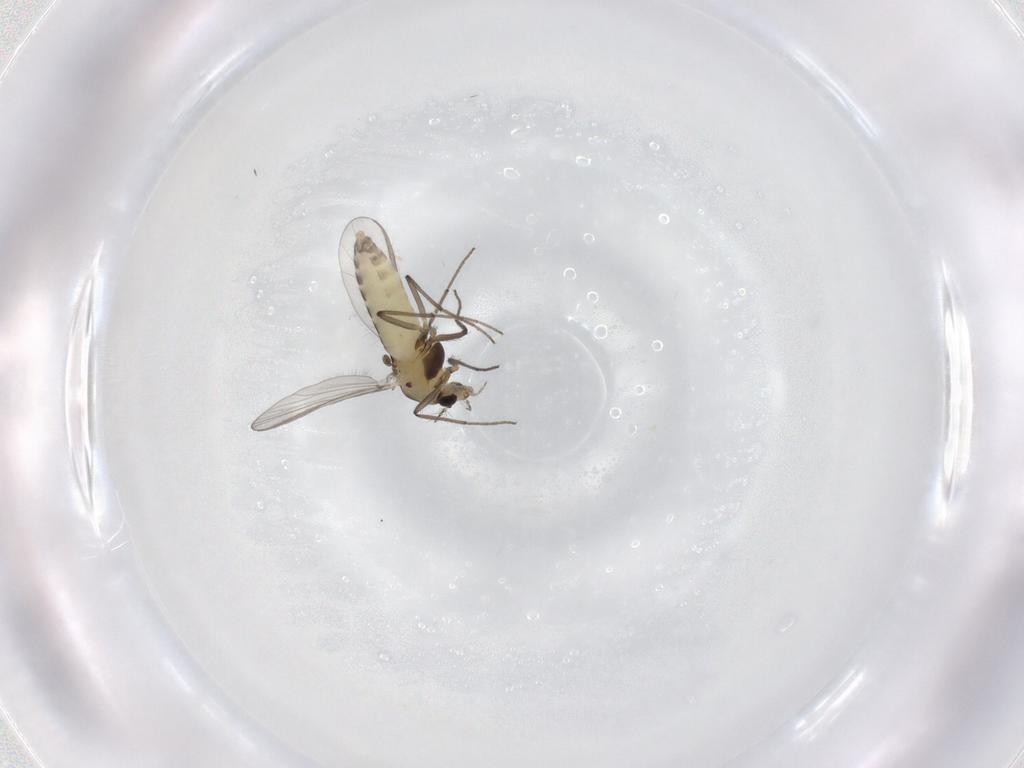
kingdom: Animalia
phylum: Arthropoda
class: Insecta
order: Diptera
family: Chironomidae
